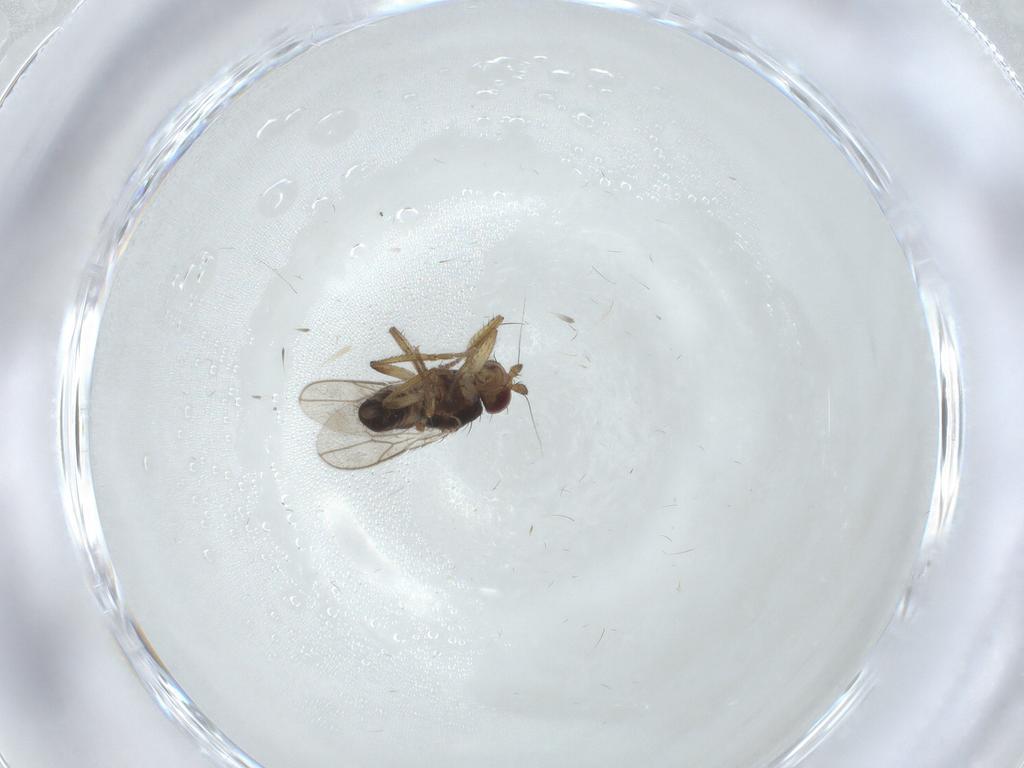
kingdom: Animalia
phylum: Arthropoda
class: Insecta
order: Diptera
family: Sphaeroceridae
